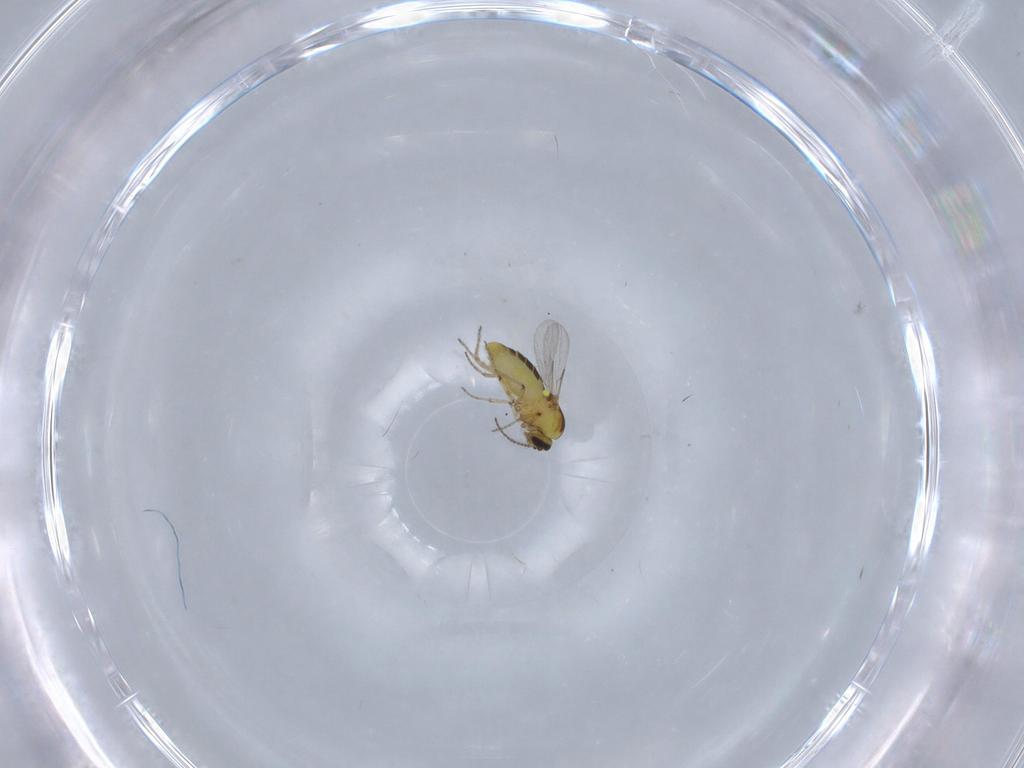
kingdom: Animalia
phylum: Arthropoda
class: Insecta
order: Diptera
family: Ceratopogonidae
